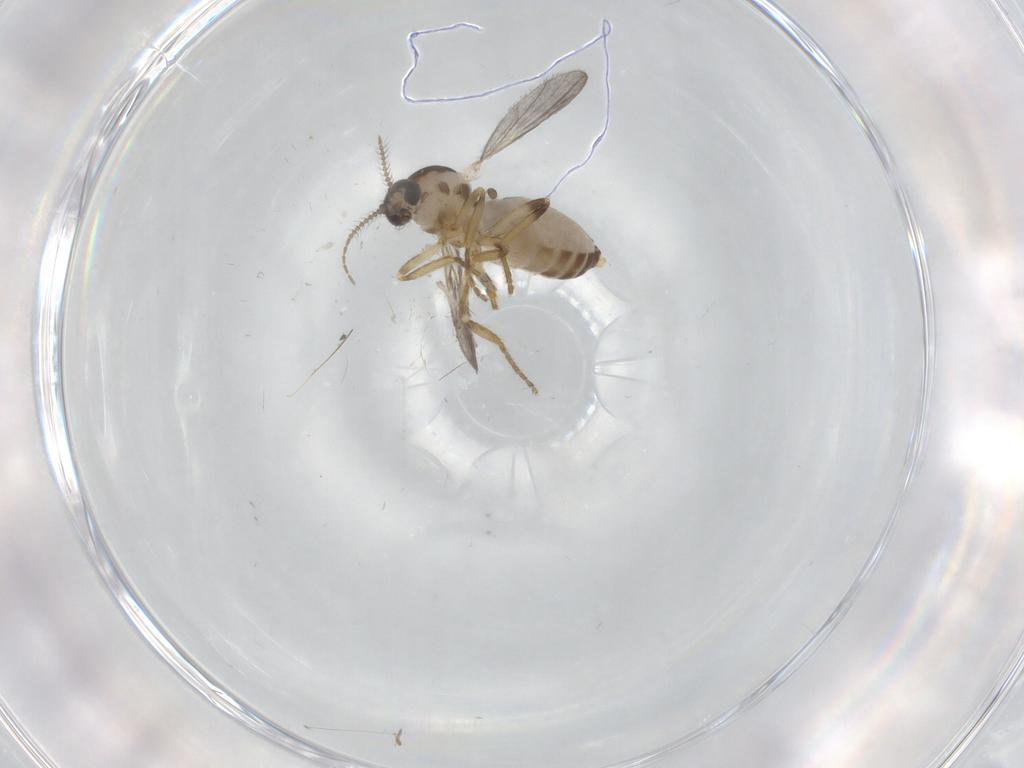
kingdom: Animalia
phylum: Arthropoda
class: Insecta
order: Diptera
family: Ceratopogonidae
